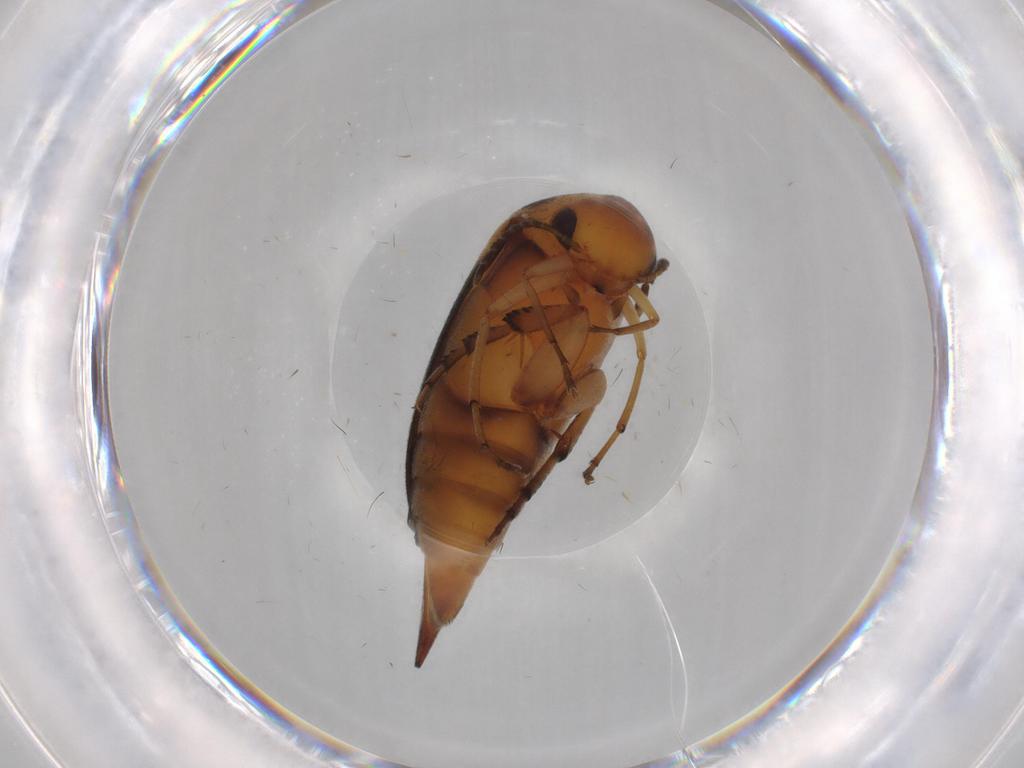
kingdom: Animalia
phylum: Arthropoda
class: Insecta
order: Coleoptera
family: Mordellidae
